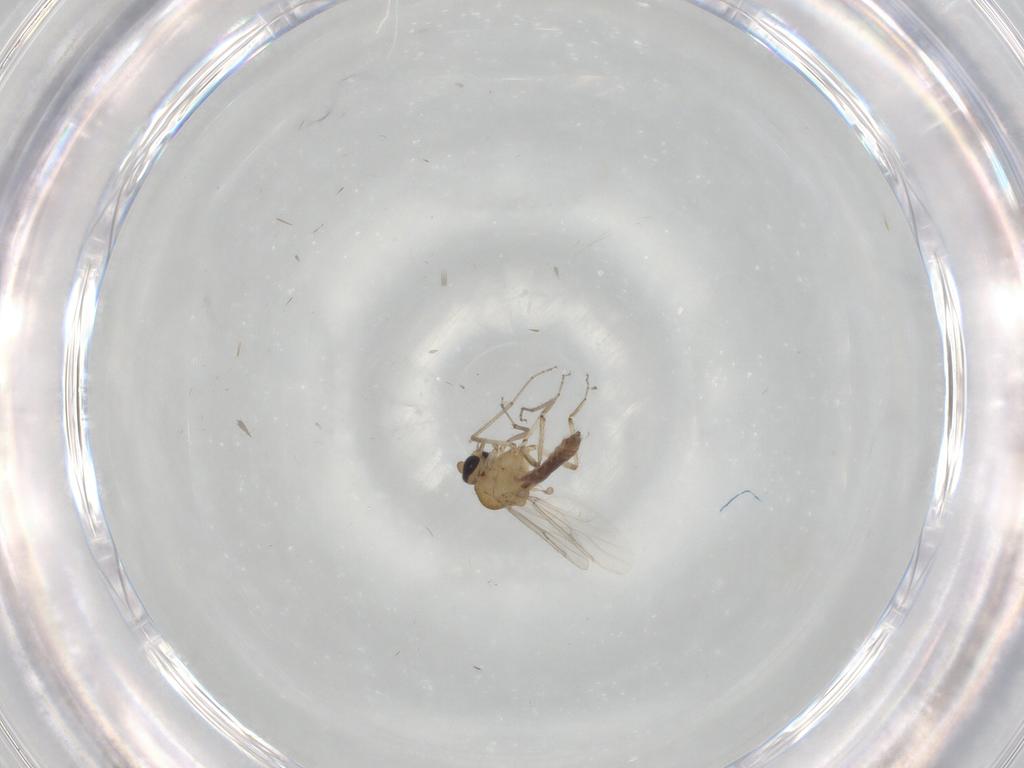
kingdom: Animalia
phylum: Arthropoda
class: Insecta
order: Diptera
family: Ceratopogonidae
